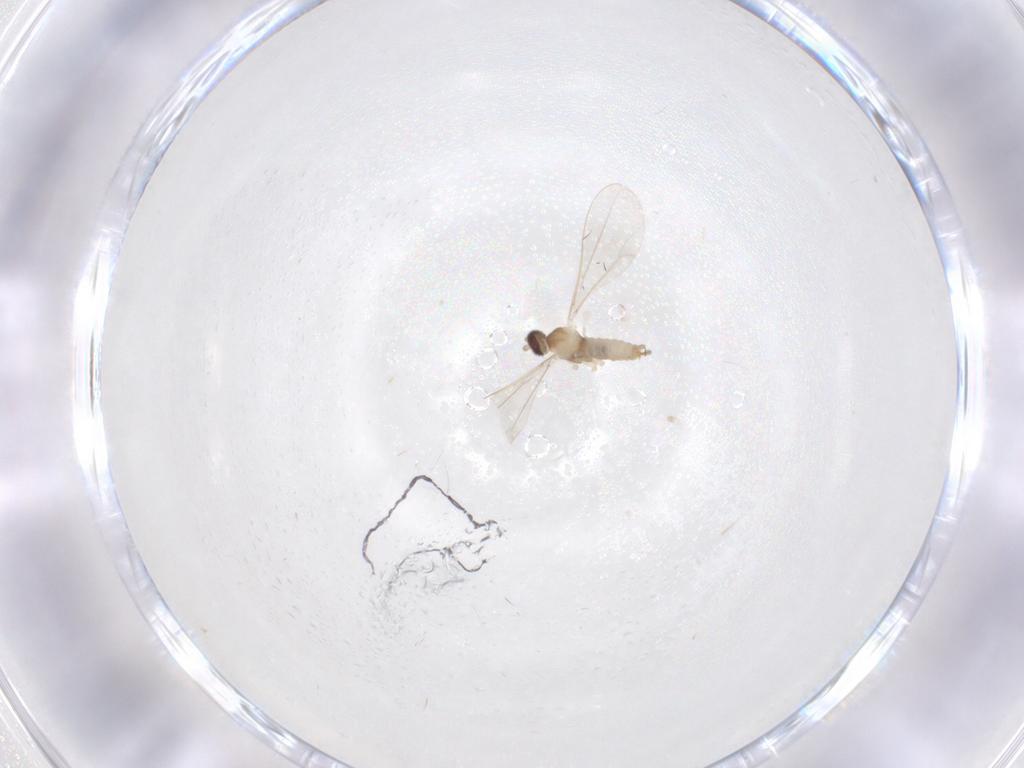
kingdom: Animalia
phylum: Arthropoda
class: Insecta
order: Diptera
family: Cecidomyiidae
